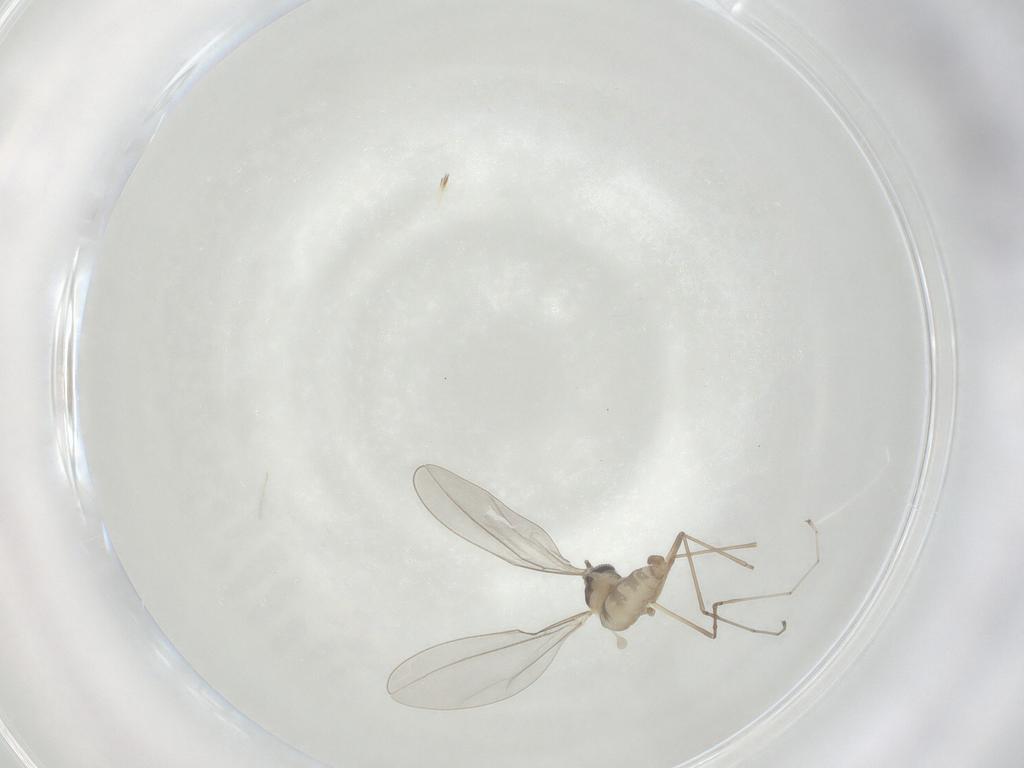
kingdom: Animalia
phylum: Arthropoda
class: Insecta
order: Diptera
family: Cecidomyiidae
